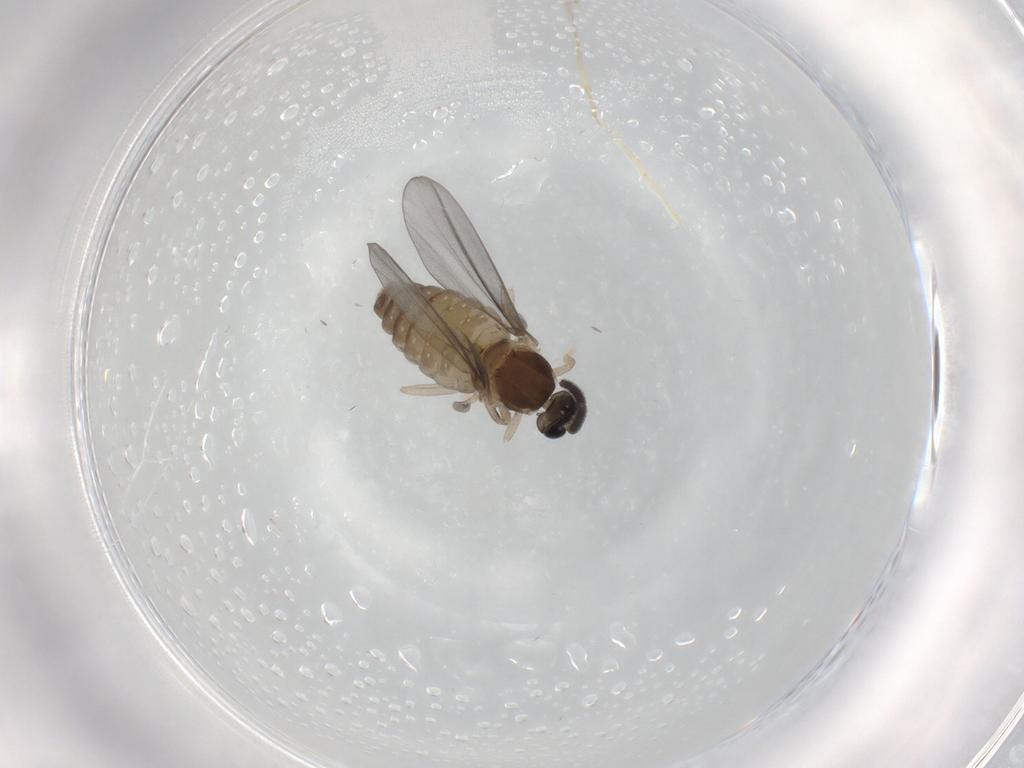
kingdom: Animalia
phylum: Arthropoda
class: Insecta
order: Diptera
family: Cecidomyiidae
